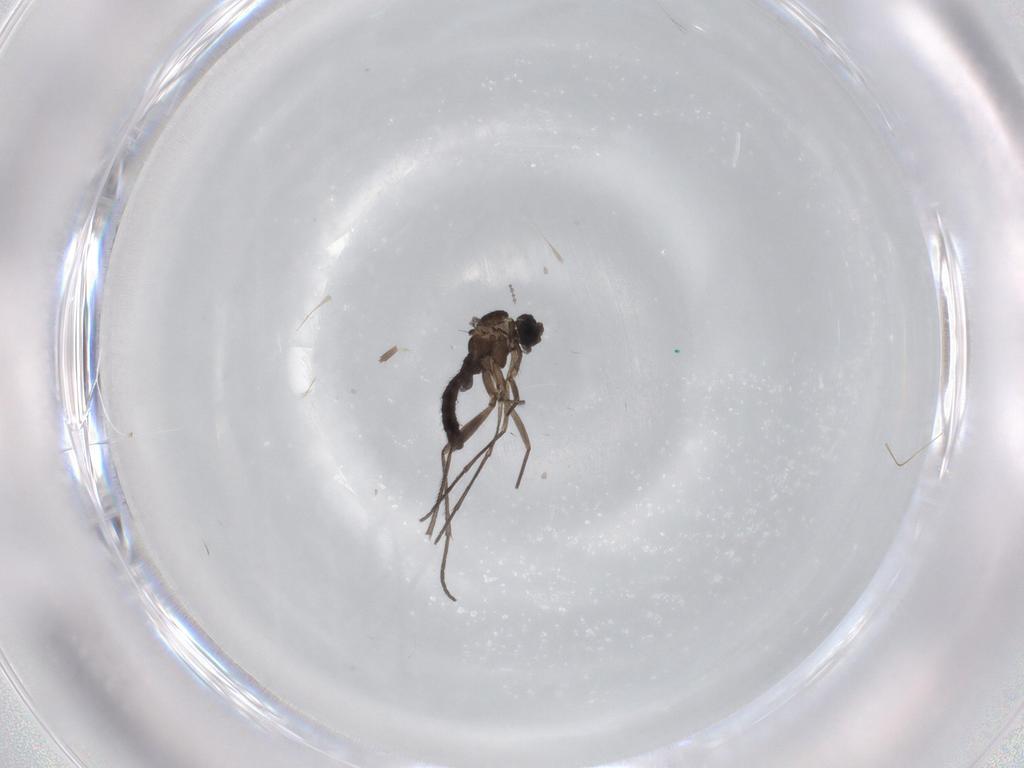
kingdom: Animalia
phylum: Arthropoda
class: Insecta
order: Diptera
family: Sciaridae
